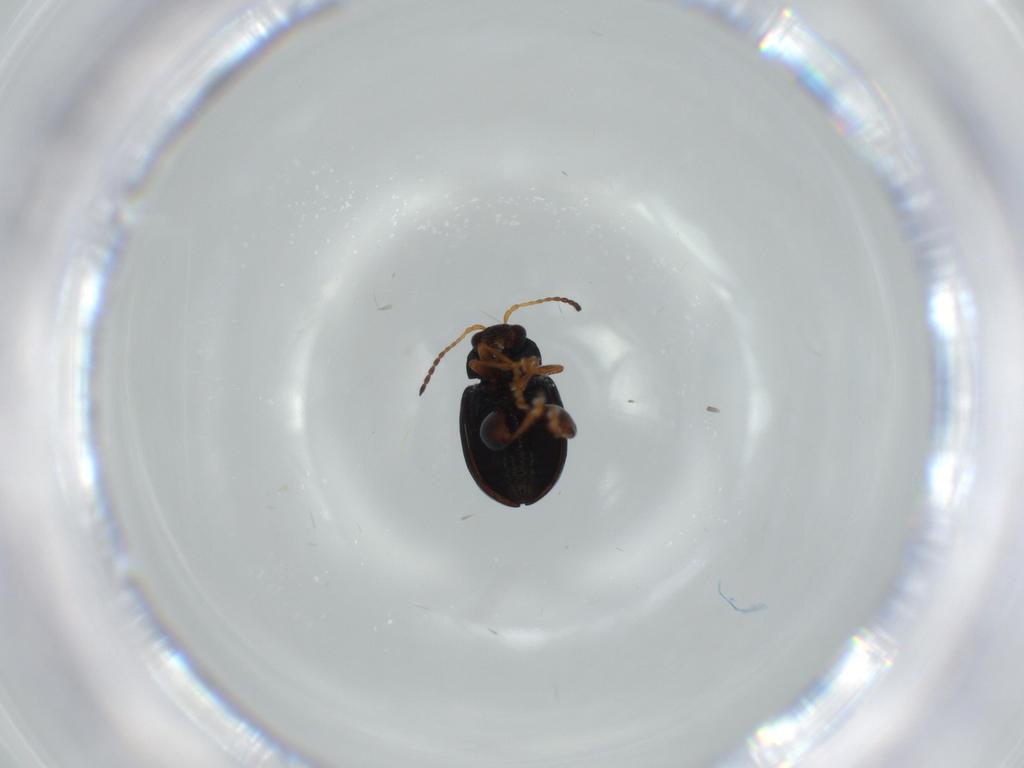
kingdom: Animalia
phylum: Arthropoda
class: Insecta
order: Coleoptera
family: Chrysomelidae
